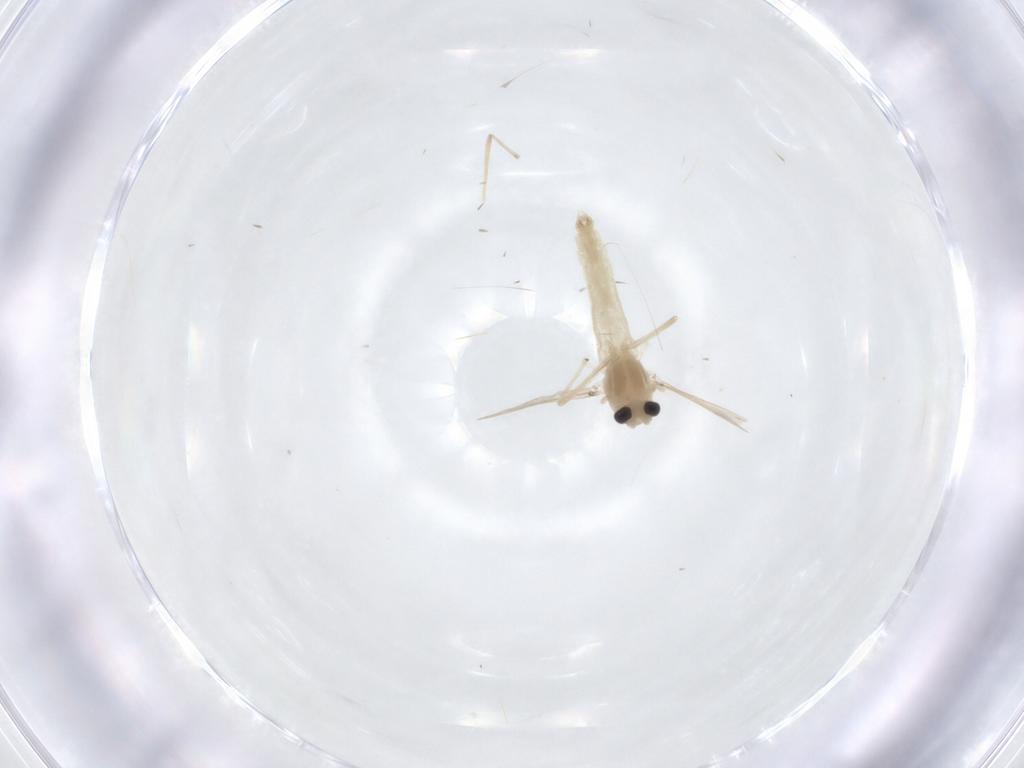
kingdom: Animalia
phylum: Arthropoda
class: Insecta
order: Diptera
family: Chironomidae
